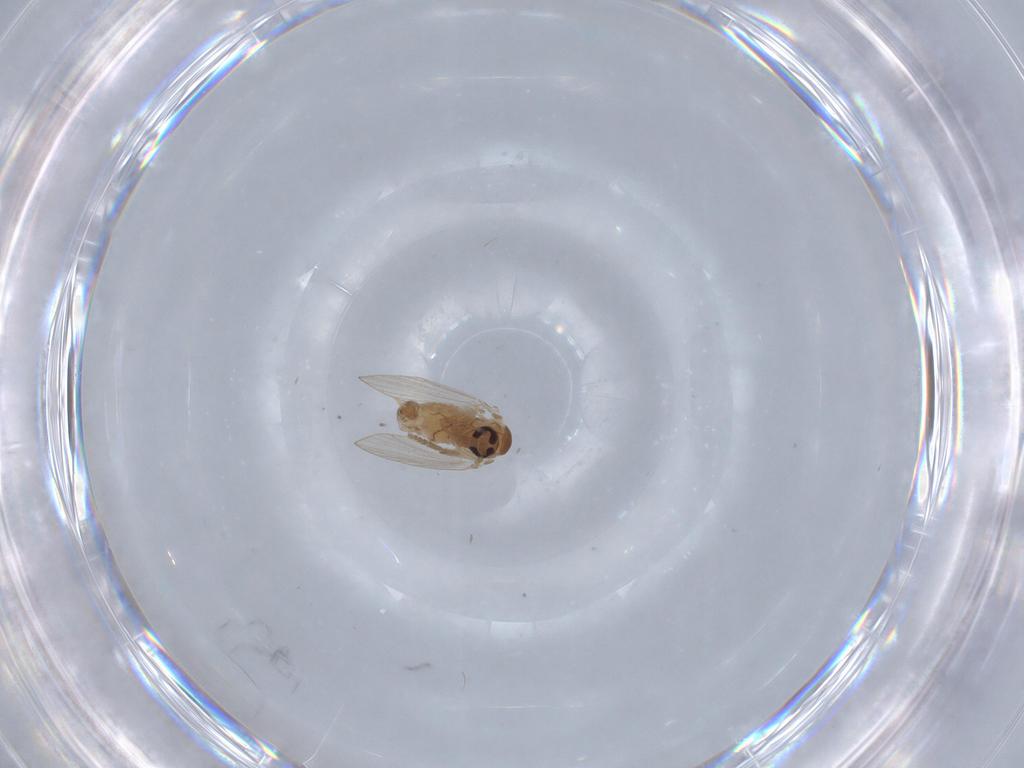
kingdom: Animalia
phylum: Arthropoda
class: Insecta
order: Diptera
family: Psychodidae
